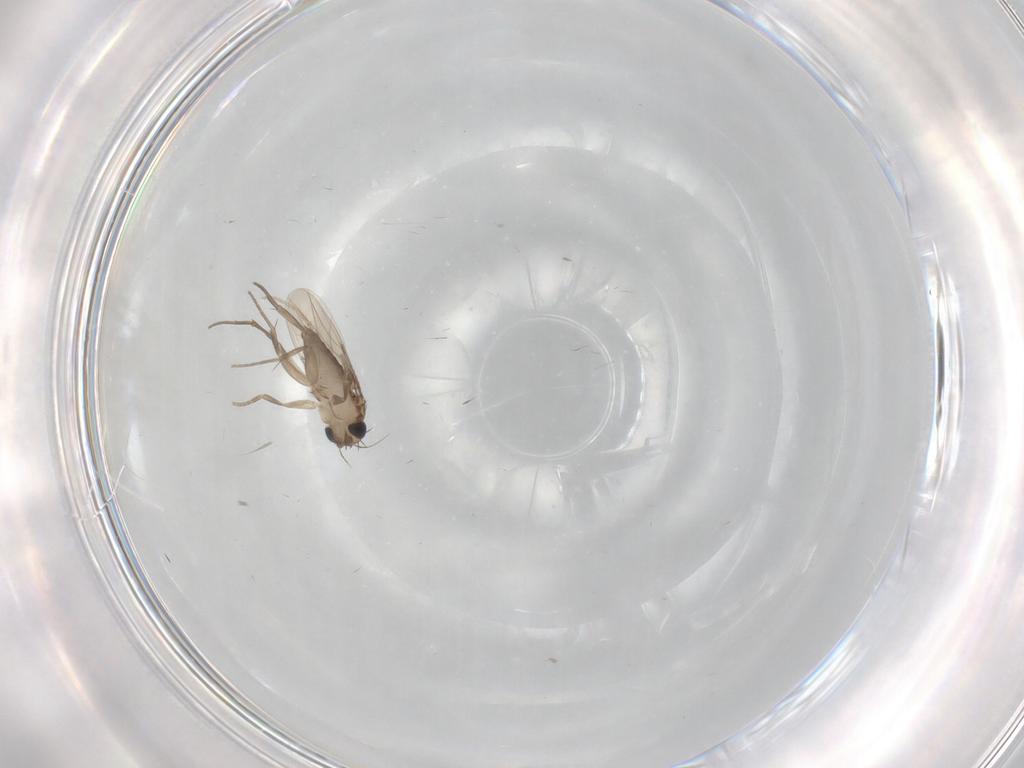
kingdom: Animalia
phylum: Arthropoda
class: Insecta
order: Diptera
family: Chironomidae
